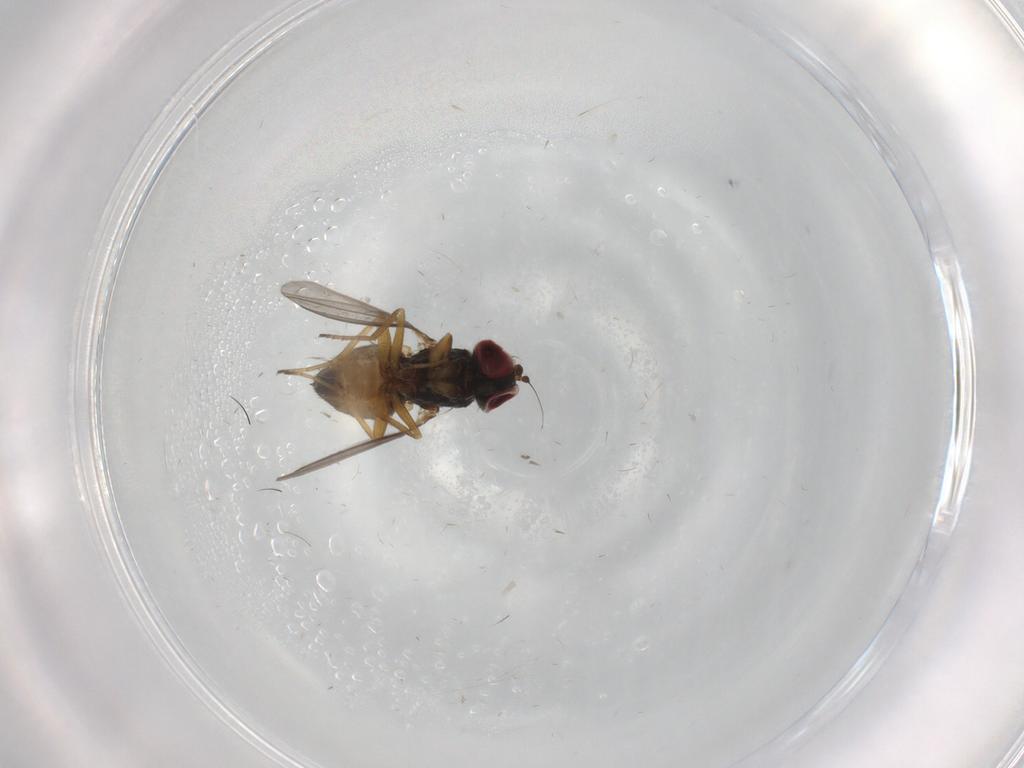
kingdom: Animalia
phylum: Arthropoda
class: Insecta
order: Diptera
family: Dolichopodidae
